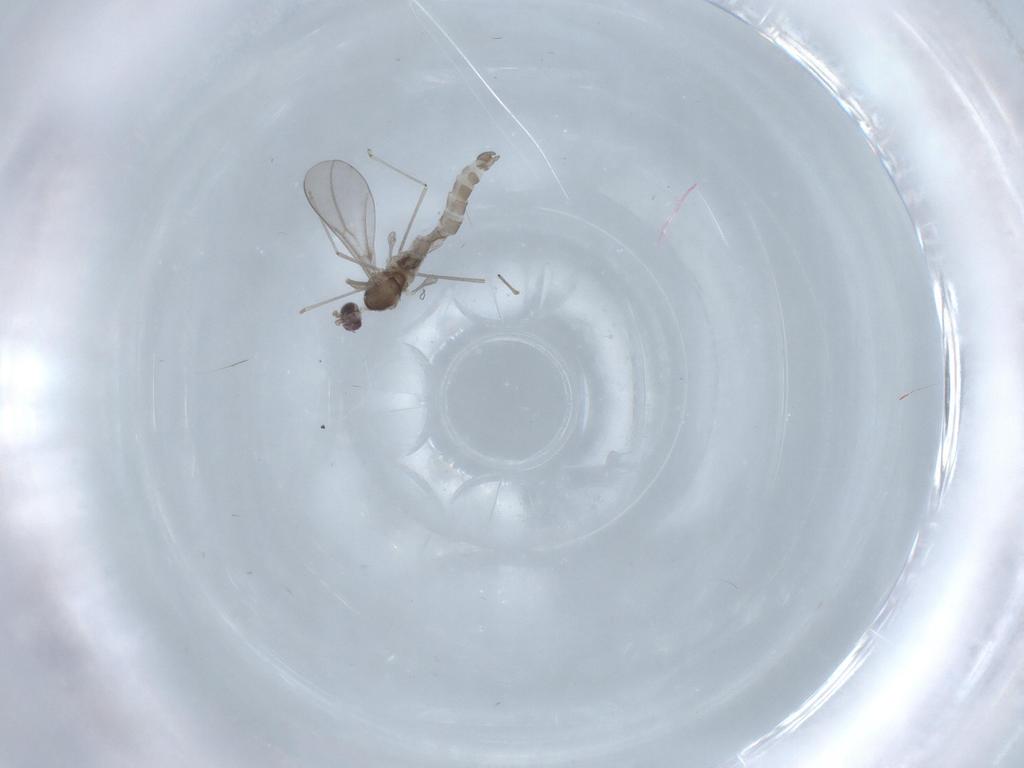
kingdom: Animalia
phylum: Arthropoda
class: Insecta
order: Diptera
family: Cecidomyiidae
